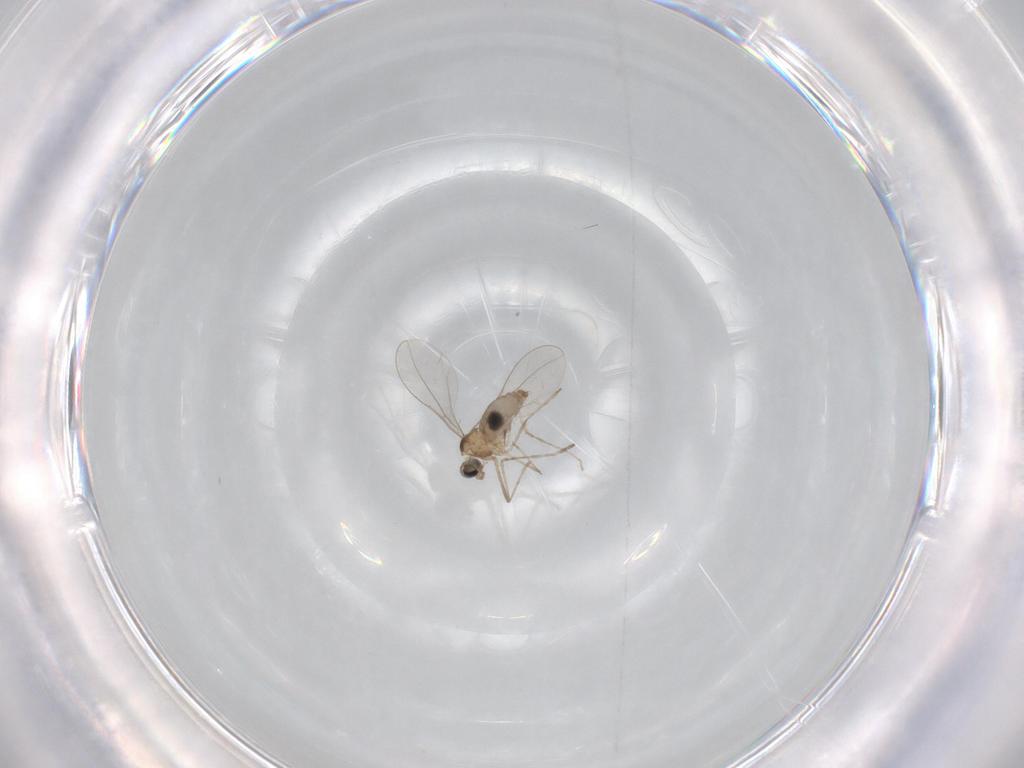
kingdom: Animalia
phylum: Arthropoda
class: Insecta
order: Diptera
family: Cecidomyiidae
